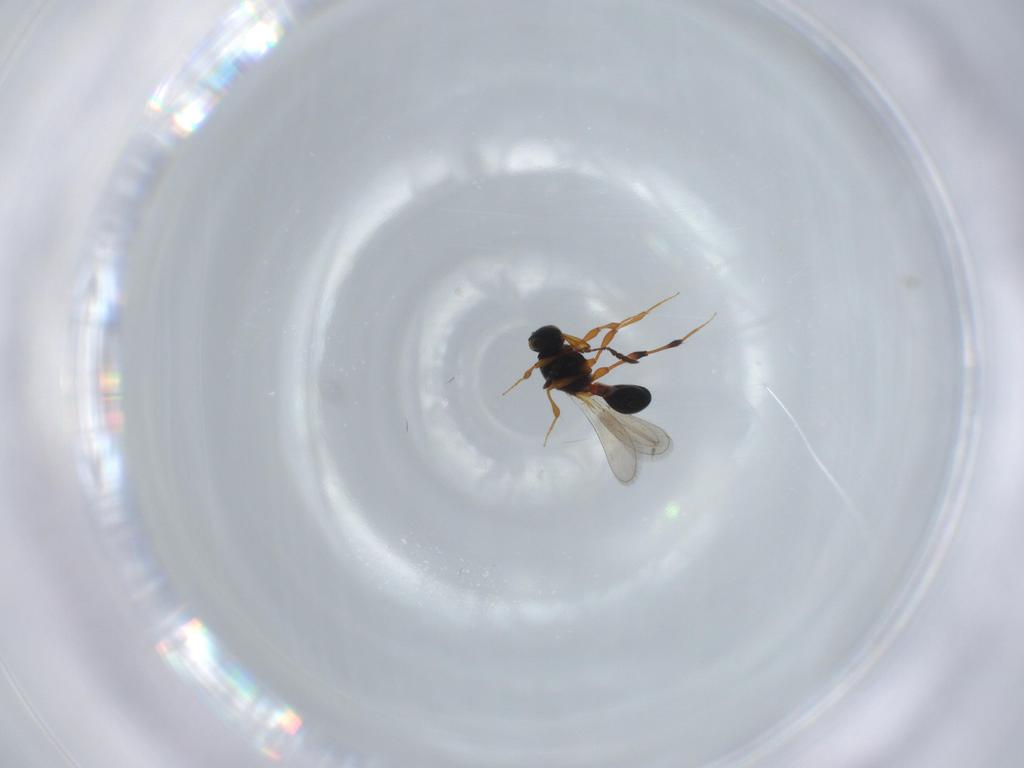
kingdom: Animalia
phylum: Arthropoda
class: Insecta
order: Hymenoptera
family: Platygastridae
